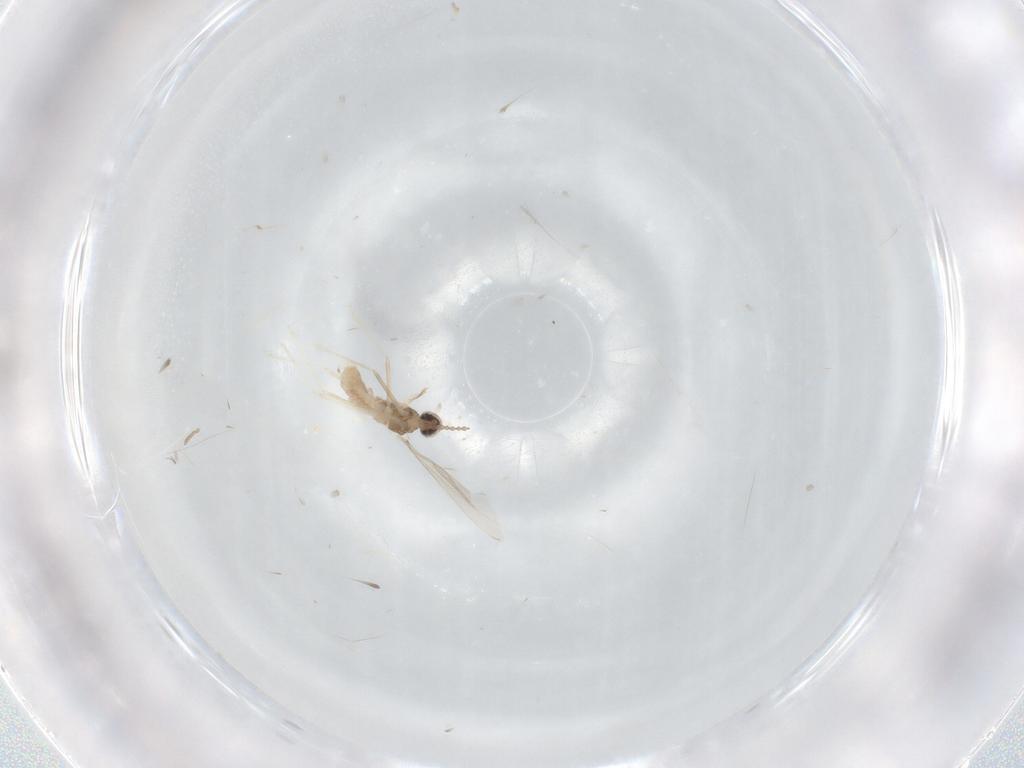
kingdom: Animalia
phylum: Arthropoda
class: Insecta
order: Diptera
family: Cecidomyiidae
